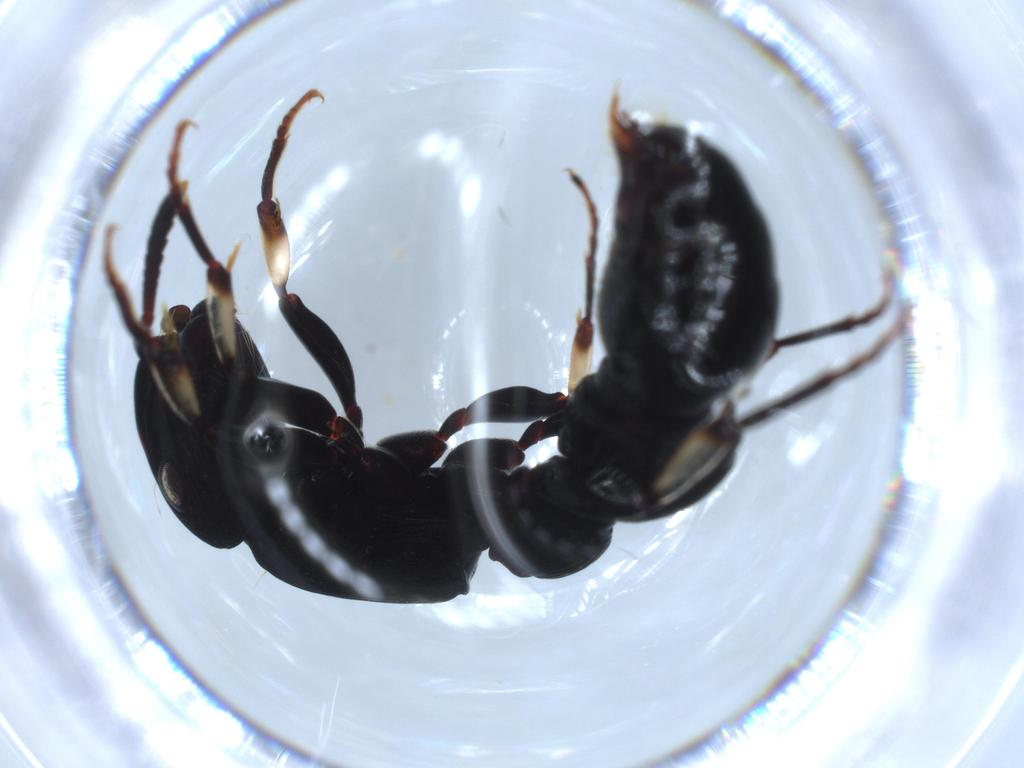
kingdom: Animalia
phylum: Arthropoda
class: Insecta
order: Hymenoptera
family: Formicidae
